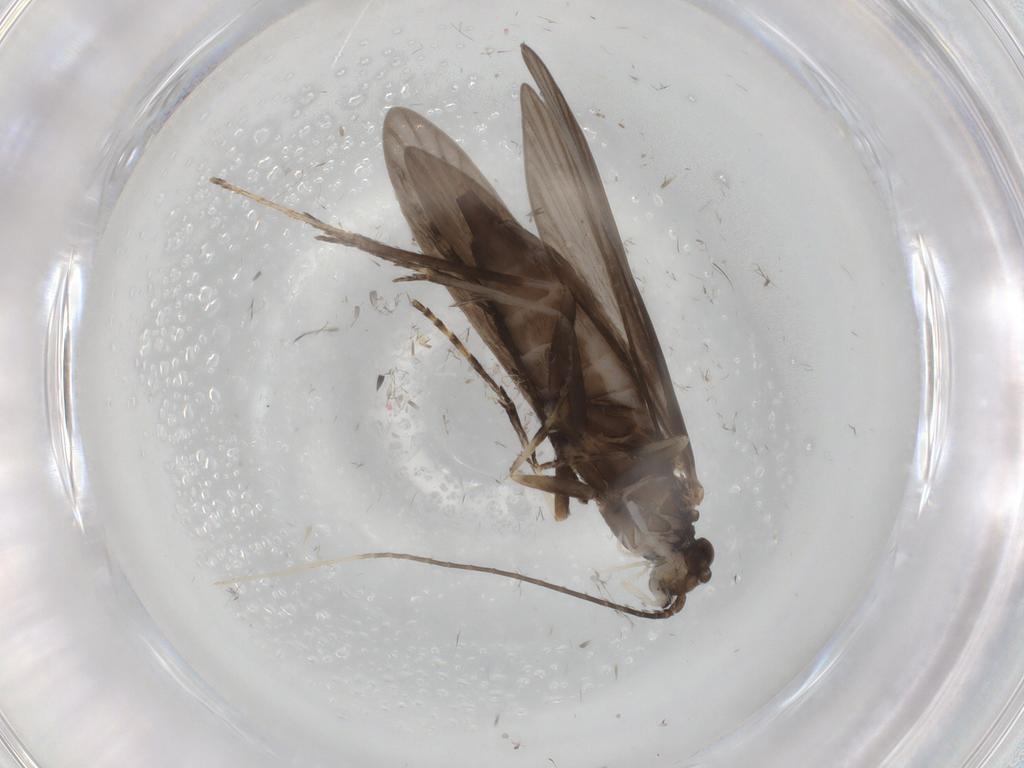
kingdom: Animalia
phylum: Arthropoda
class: Insecta
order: Trichoptera
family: Xiphocentronidae
